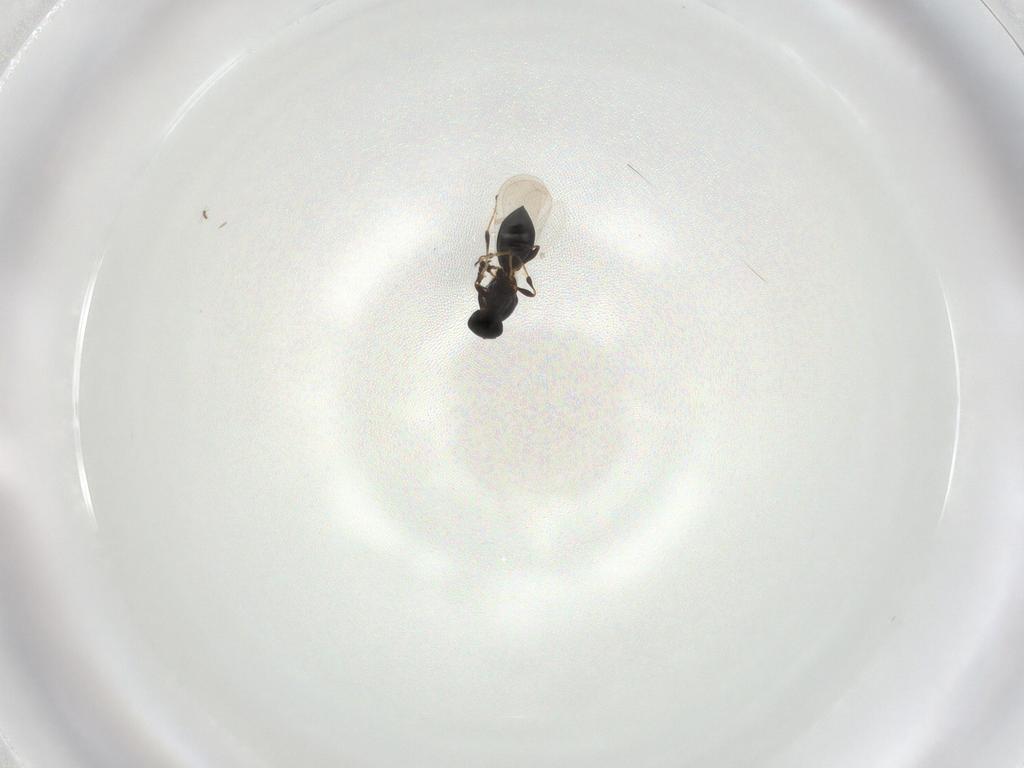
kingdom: Animalia
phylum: Arthropoda
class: Insecta
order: Hymenoptera
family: Platygastridae
